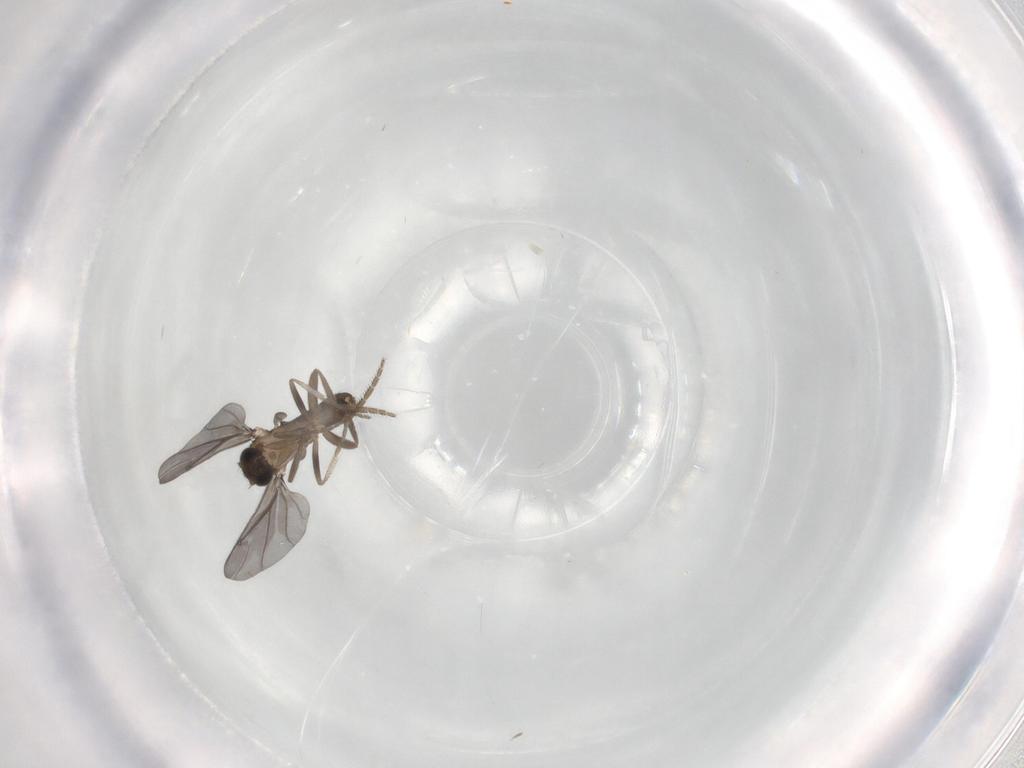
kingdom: Animalia
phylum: Arthropoda
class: Insecta
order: Diptera
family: Phoridae
